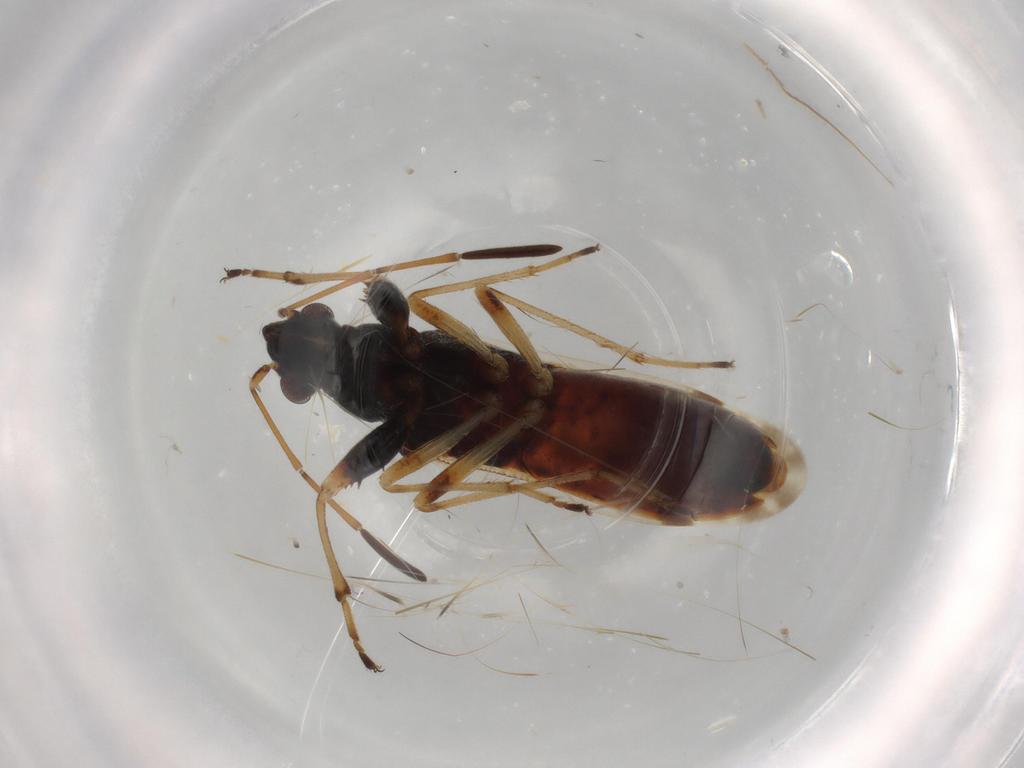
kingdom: Animalia
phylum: Arthropoda
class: Insecta
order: Hemiptera
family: Rhyparochromidae
